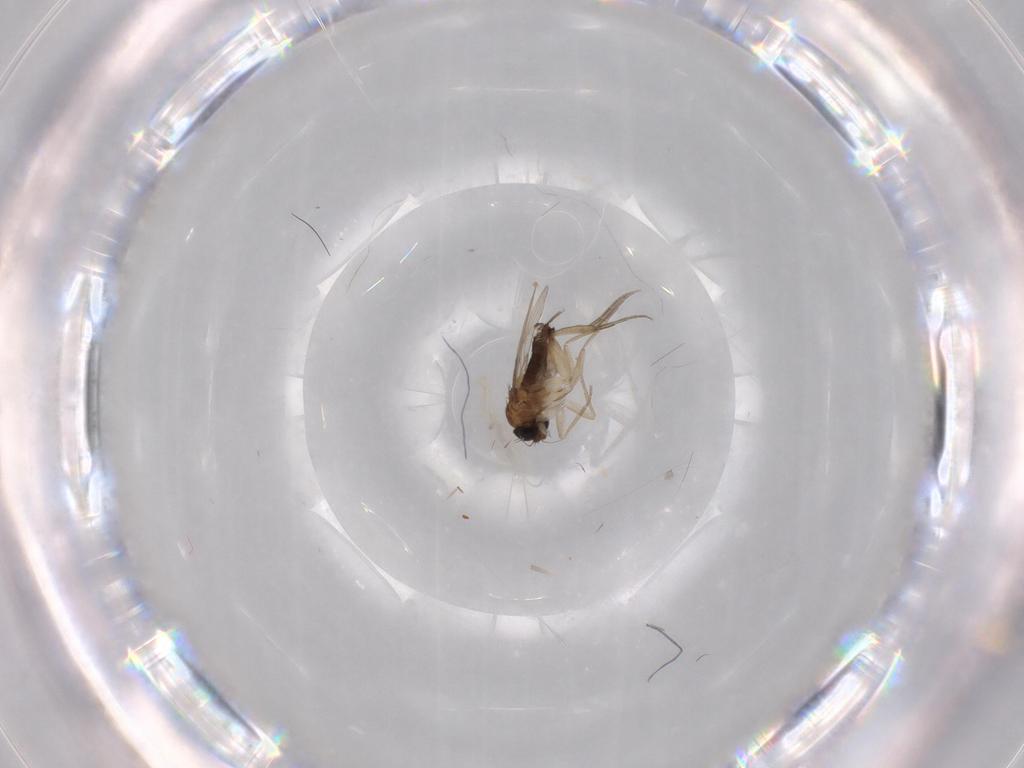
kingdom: Animalia
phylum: Arthropoda
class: Insecta
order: Diptera
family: Phoridae
